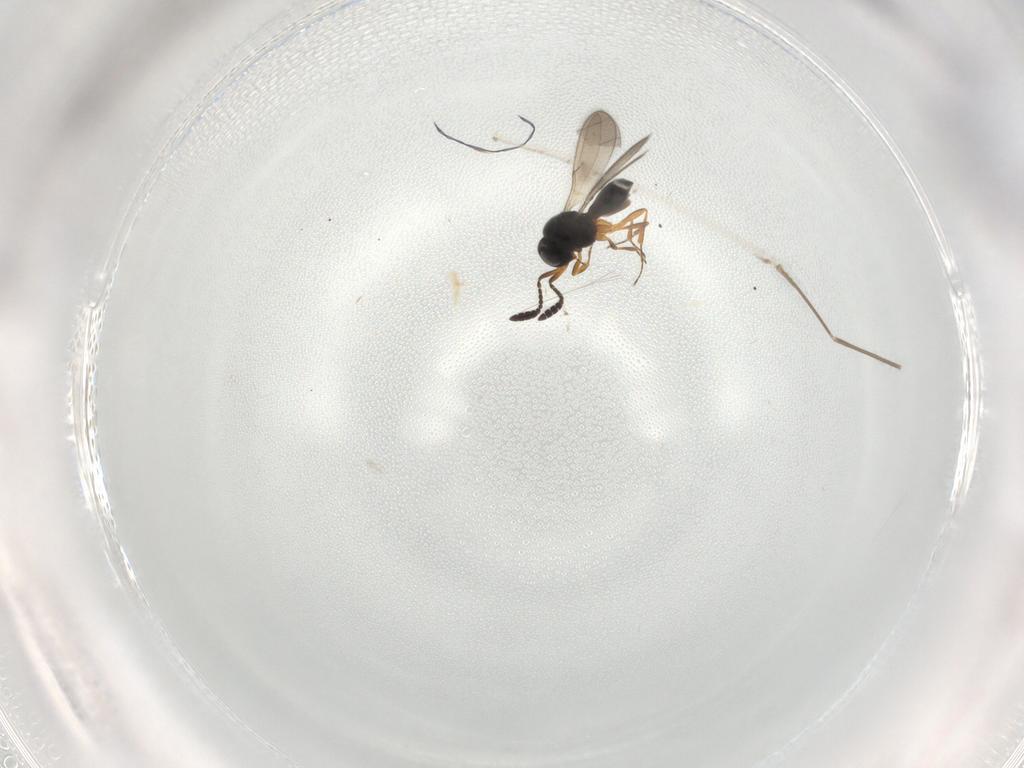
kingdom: Animalia
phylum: Arthropoda
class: Insecta
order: Hymenoptera
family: Scelionidae
